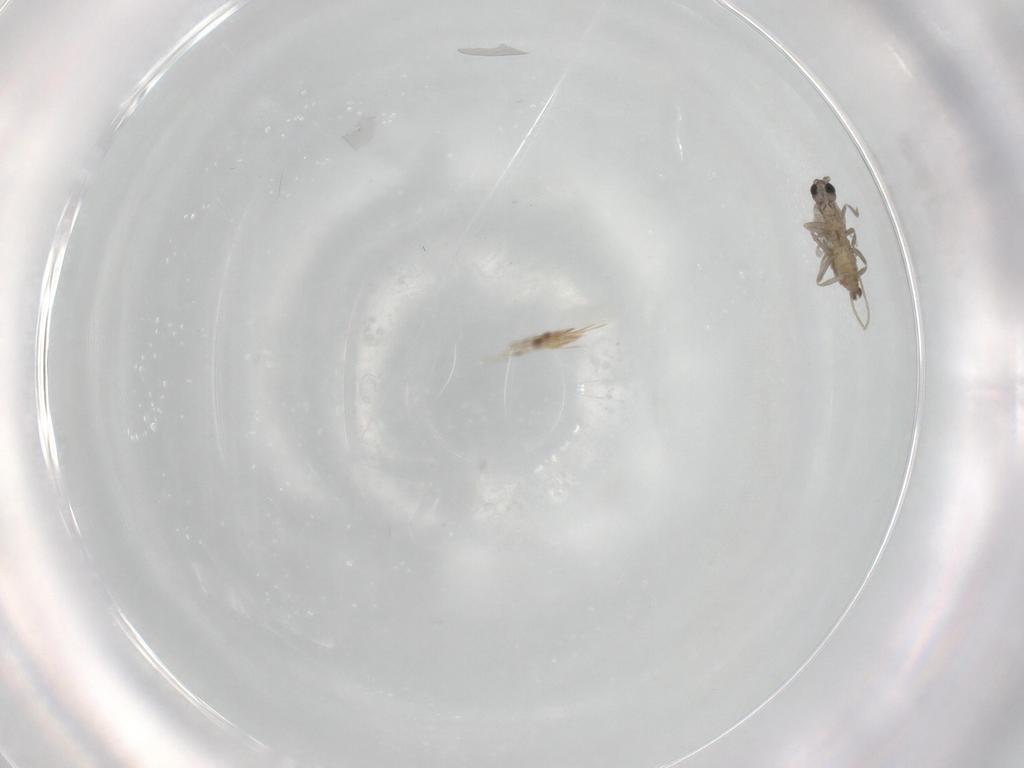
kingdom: Animalia
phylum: Arthropoda
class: Insecta
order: Diptera
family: Cecidomyiidae
